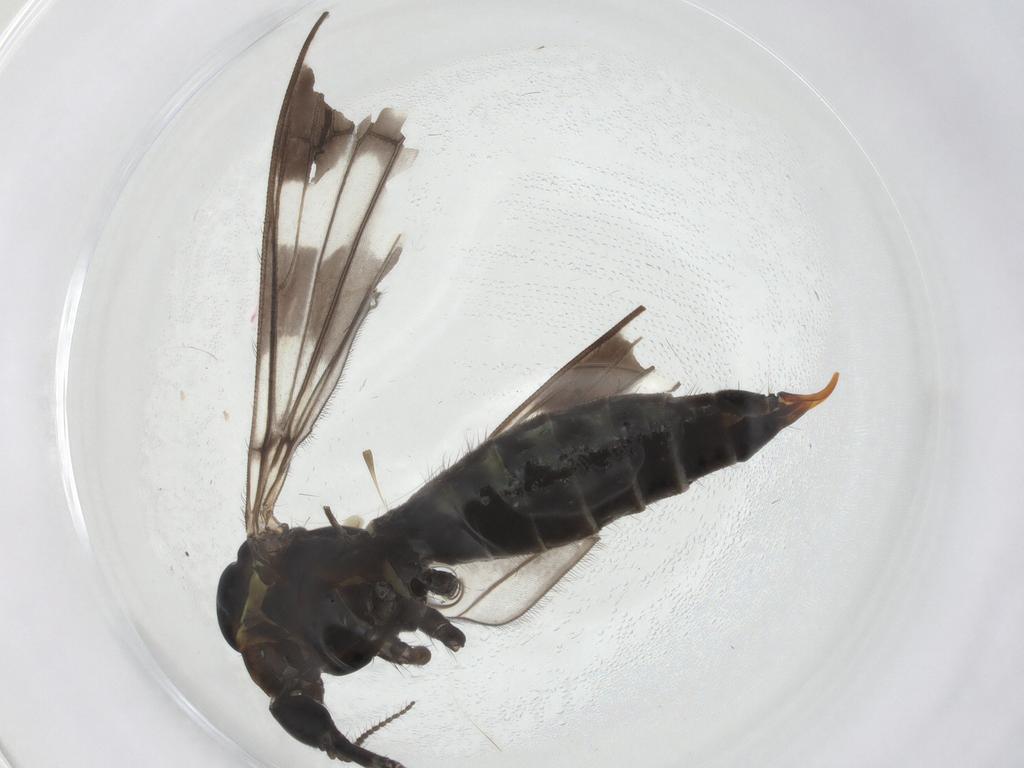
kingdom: Animalia
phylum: Arthropoda
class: Insecta
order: Diptera
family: Limoniidae
